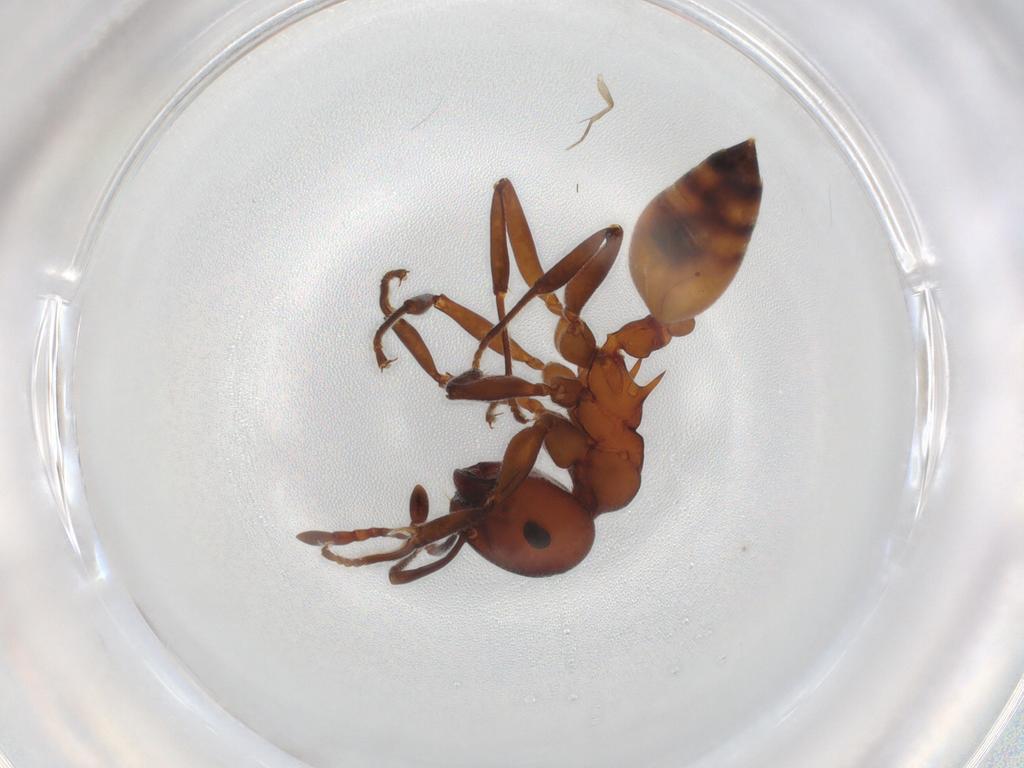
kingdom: Animalia
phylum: Arthropoda
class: Insecta
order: Hymenoptera
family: Formicidae
